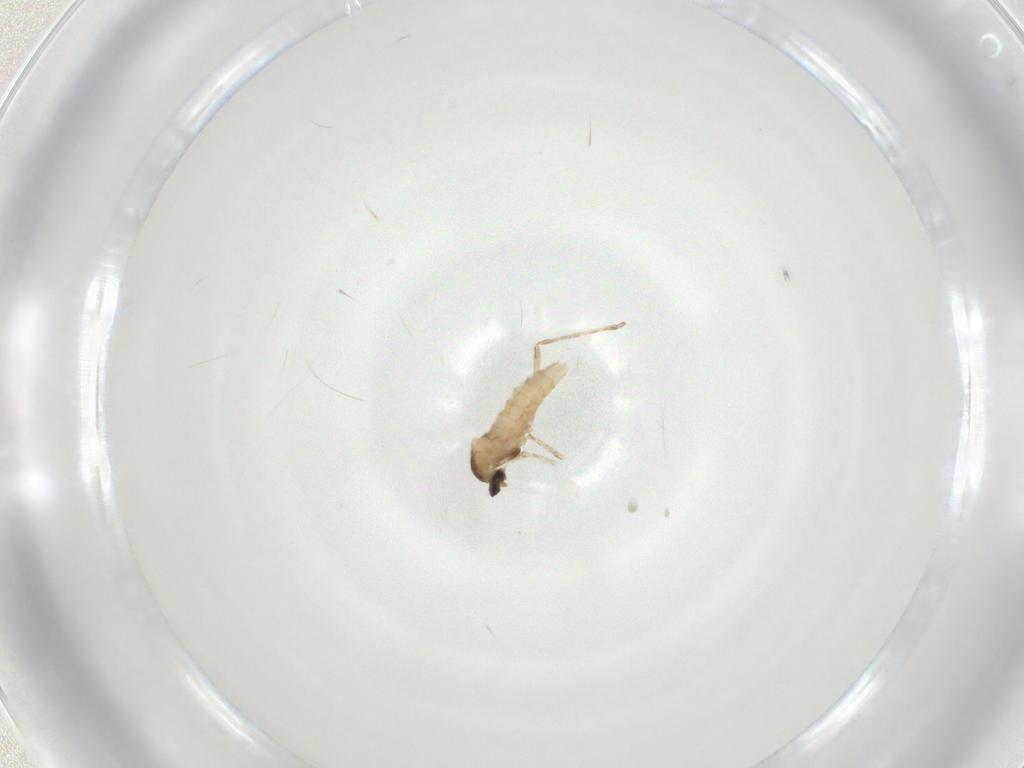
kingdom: Animalia
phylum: Arthropoda
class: Insecta
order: Diptera
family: Cecidomyiidae
